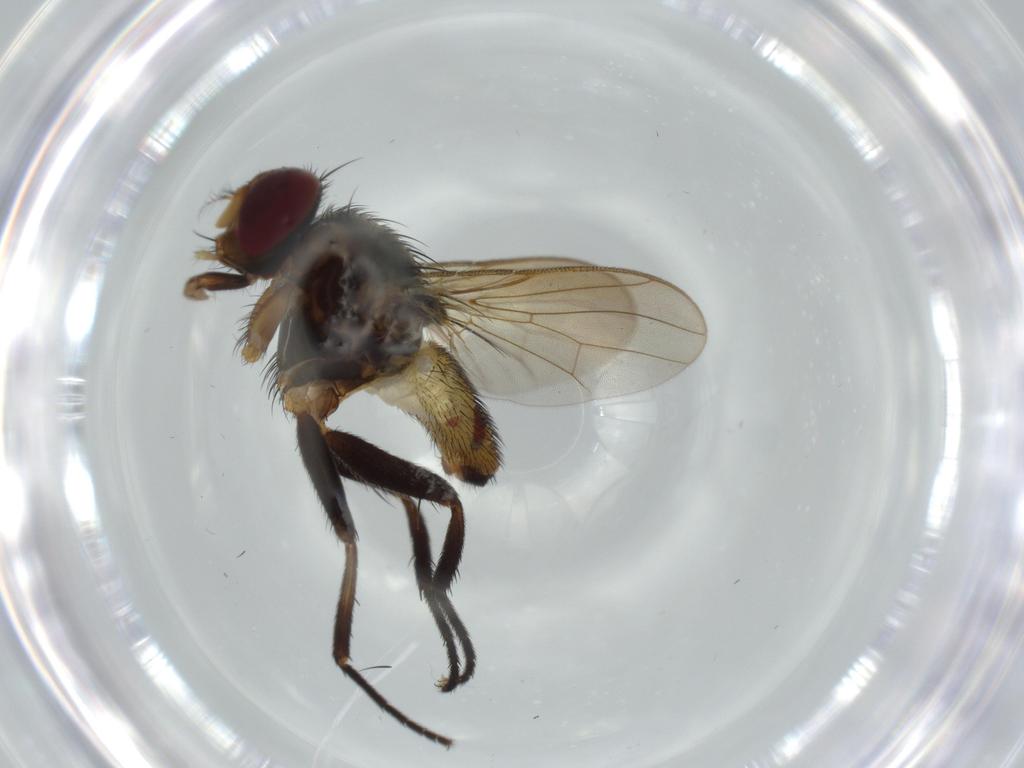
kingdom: Animalia
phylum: Arthropoda
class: Insecta
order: Diptera
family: Anthomyiidae
